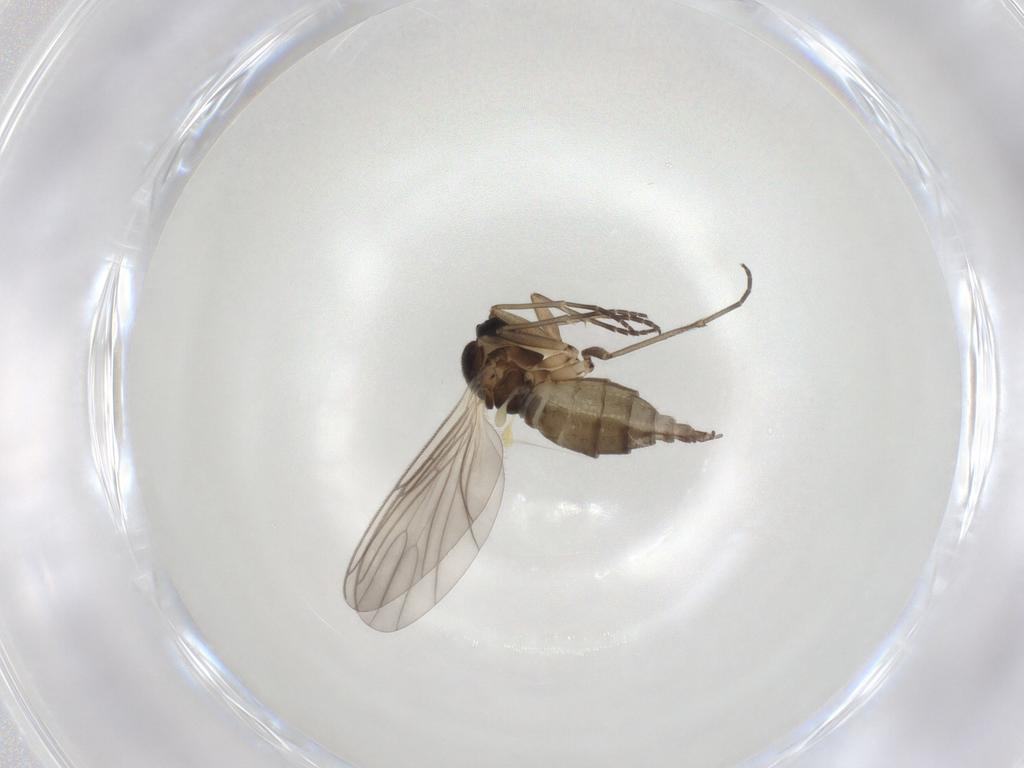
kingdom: Animalia
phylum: Arthropoda
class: Insecta
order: Diptera
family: Syrphidae
